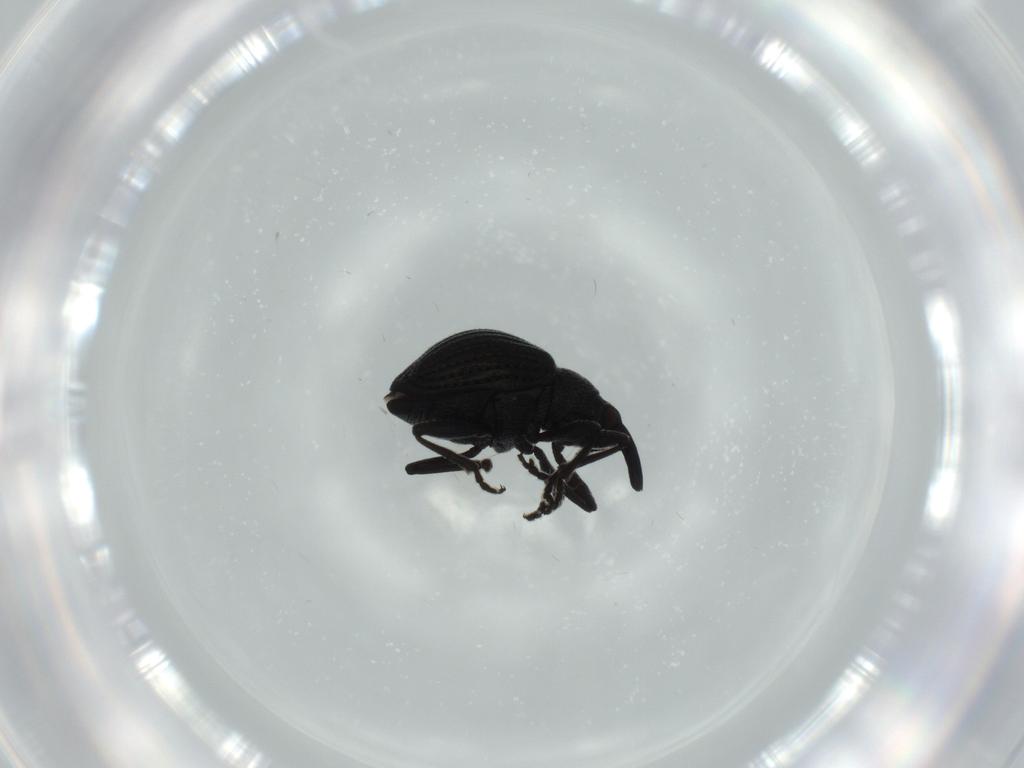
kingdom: Animalia
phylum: Arthropoda
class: Insecta
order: Coleoptera
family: Brentidae
